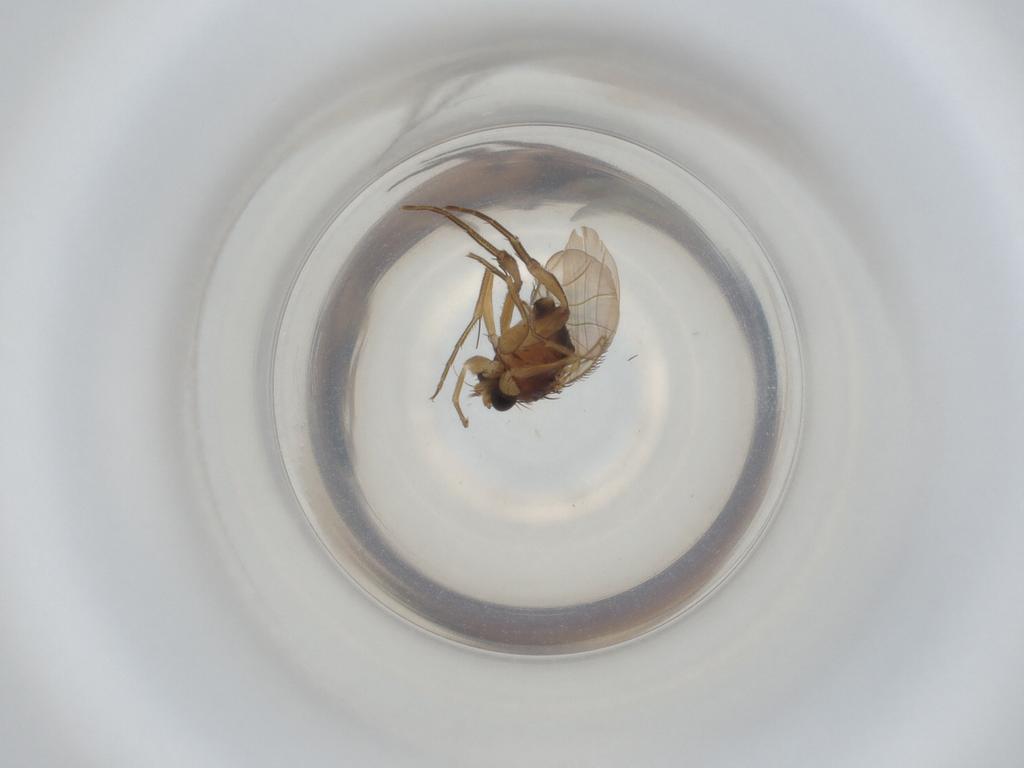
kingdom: Animalia
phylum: Arthropoda
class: Insecta
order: Diptera
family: Phoridae
